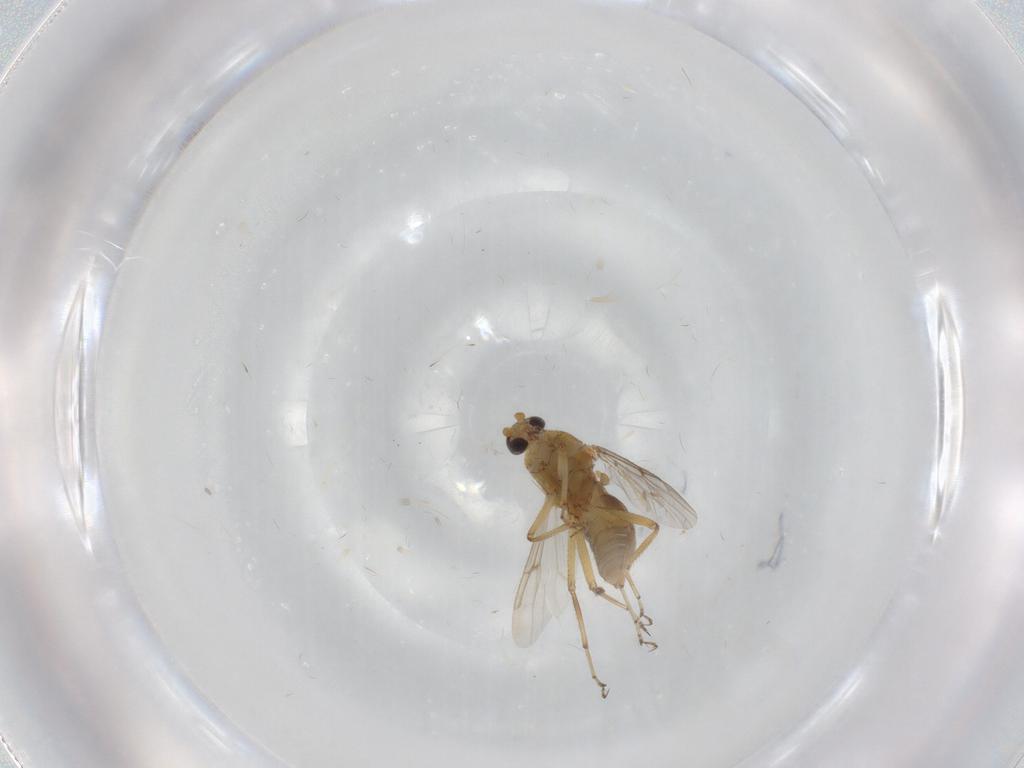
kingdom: Animalia
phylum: Arthropoda
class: Insecta
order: Diptera
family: Ceratopogonidae
